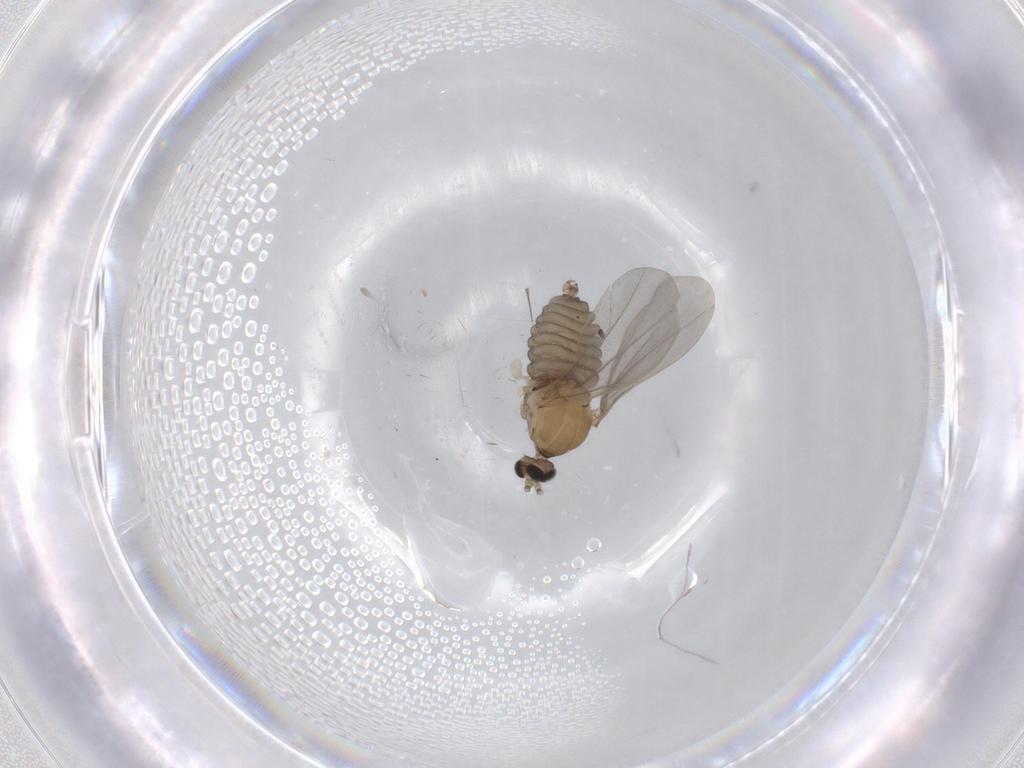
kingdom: Animalia
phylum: Arthropoda
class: Insecta
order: Diptera
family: Cecidomyiidae
